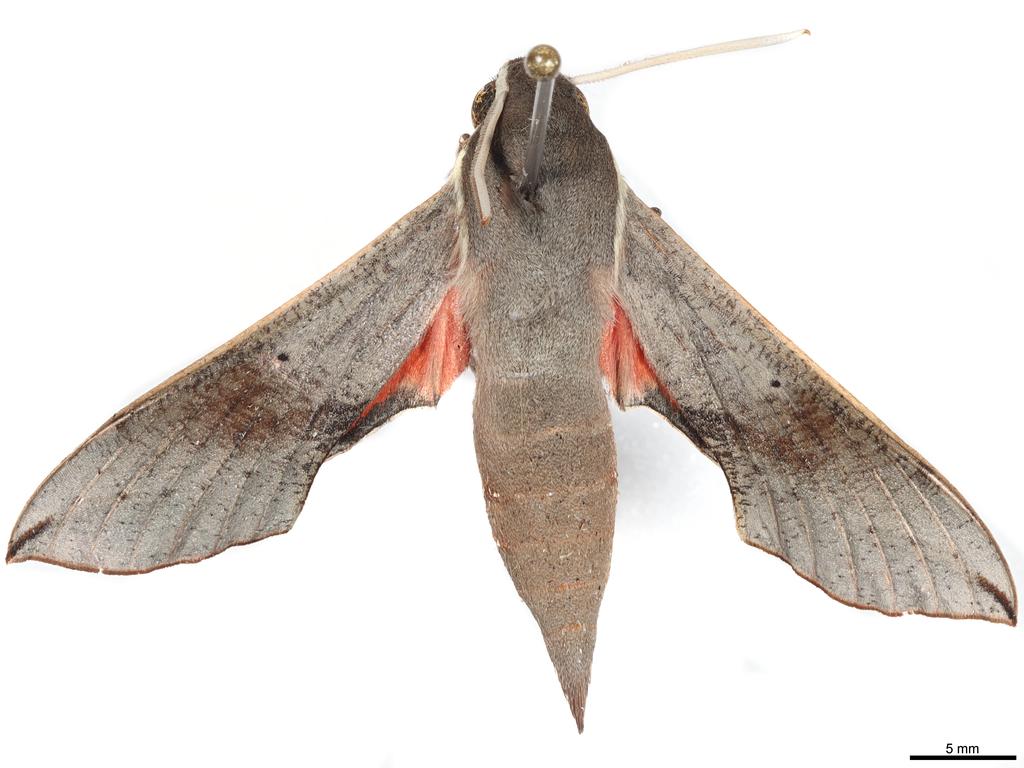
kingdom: Animalia
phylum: Arthropoda
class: Insecta
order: Lepidoptera
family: Sphingidae
